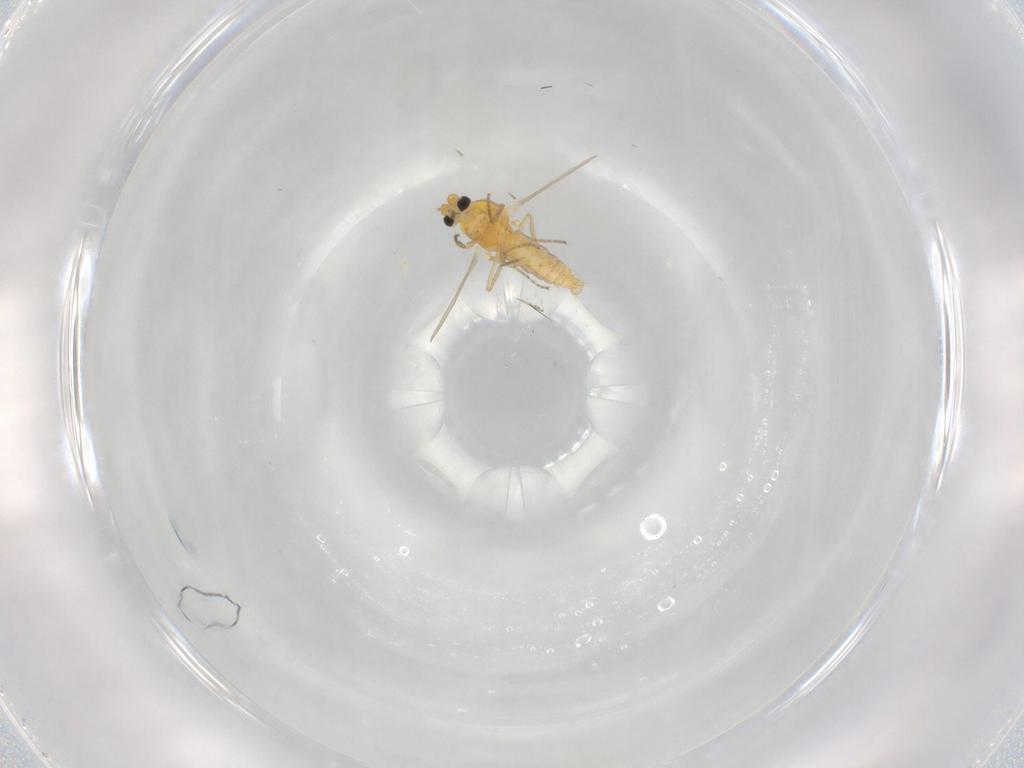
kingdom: Animalia
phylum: Arthropoda
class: Insecta
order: Diptera
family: Ceratopogonidae
